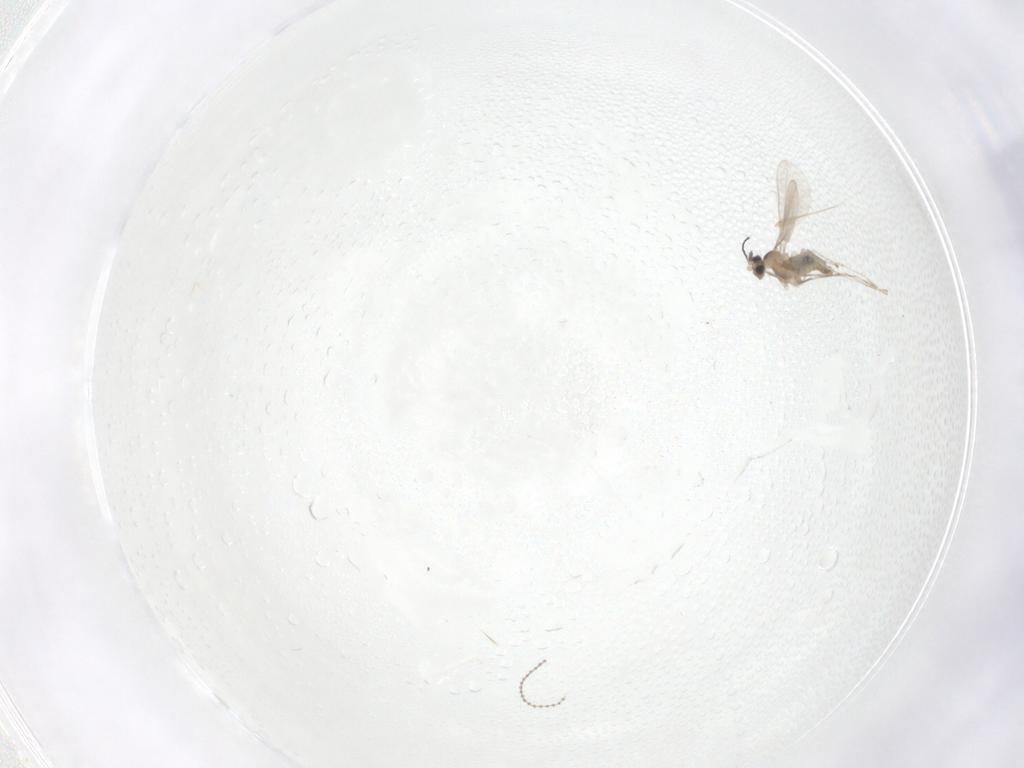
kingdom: Animalia
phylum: Arthropoda
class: Insecta
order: Diptera
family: Cecidomyiidae
